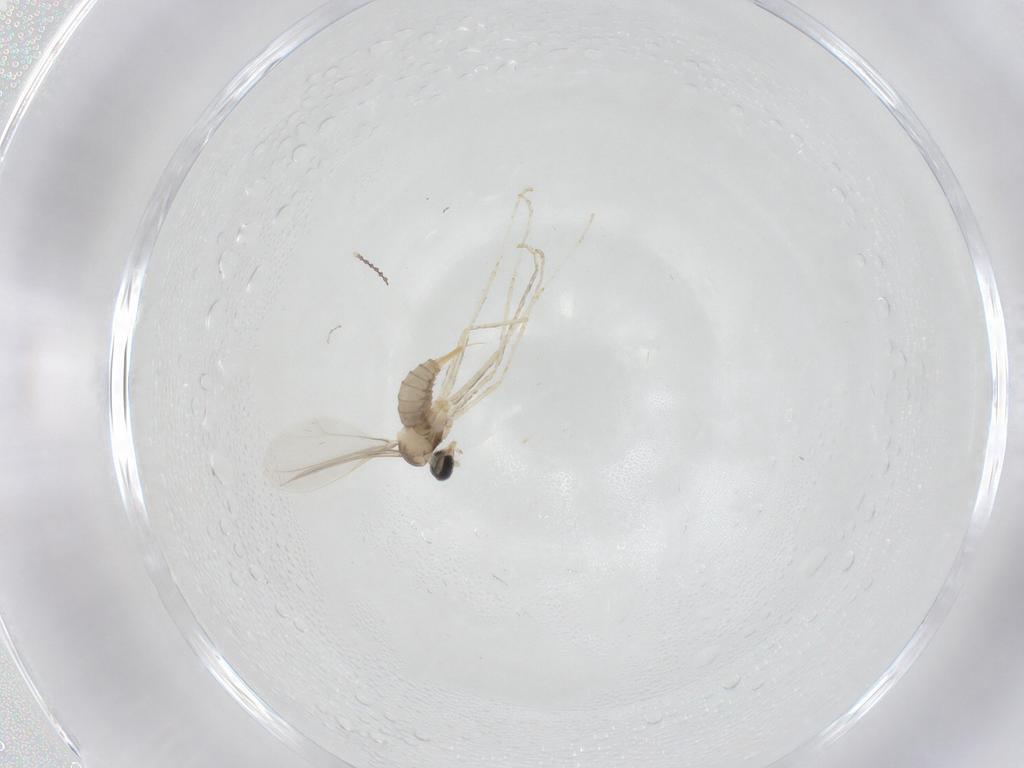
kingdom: Animalia
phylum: Arthropoda
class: Insecta
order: Diptera
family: Cecidomyiidae
